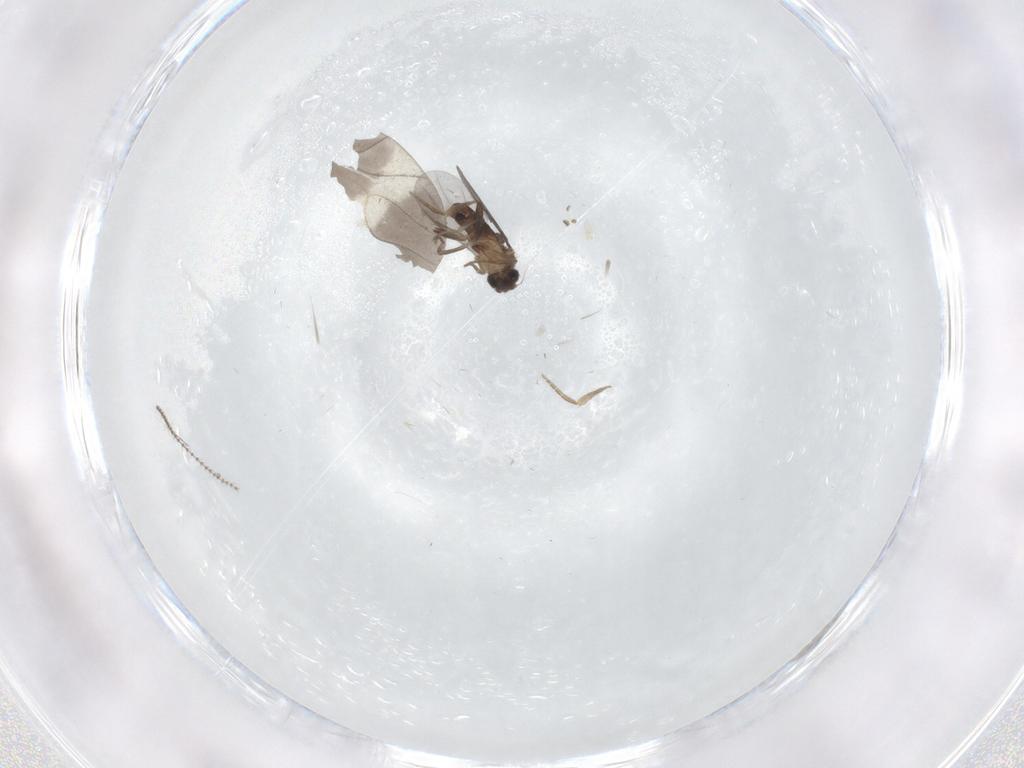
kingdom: Animalia
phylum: Arthropoda
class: Insecta
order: Diptera
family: Cecidomyiidae
